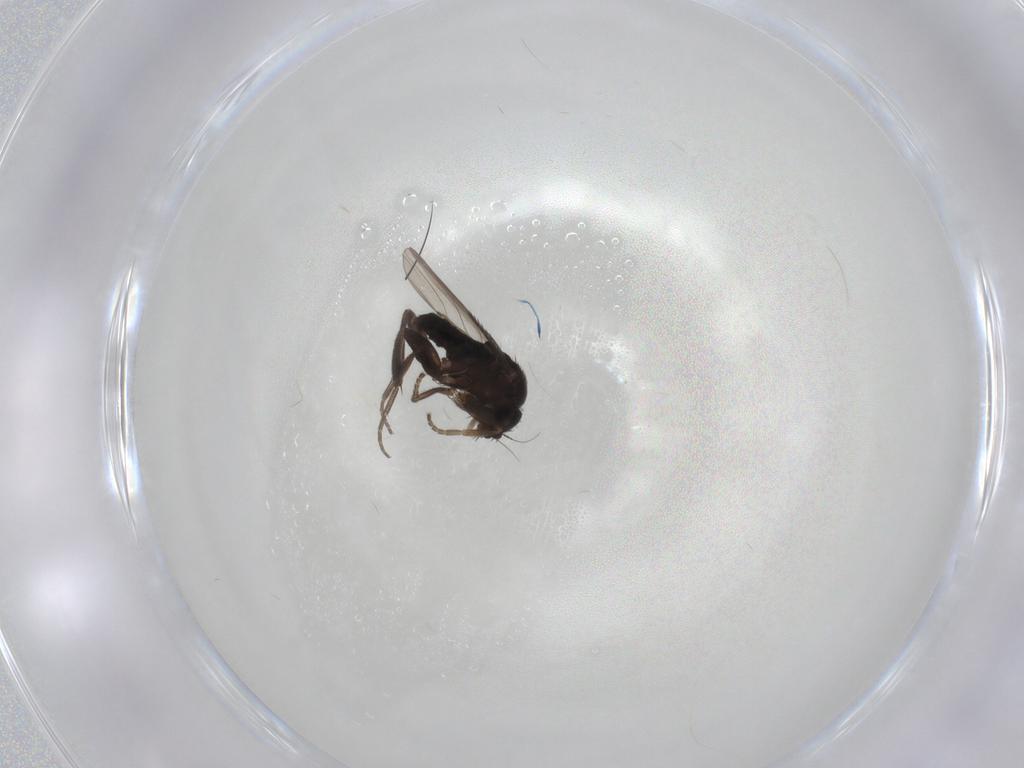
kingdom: Animalia
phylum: Arthropoda
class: Insecta
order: Diptera
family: Phoridae
